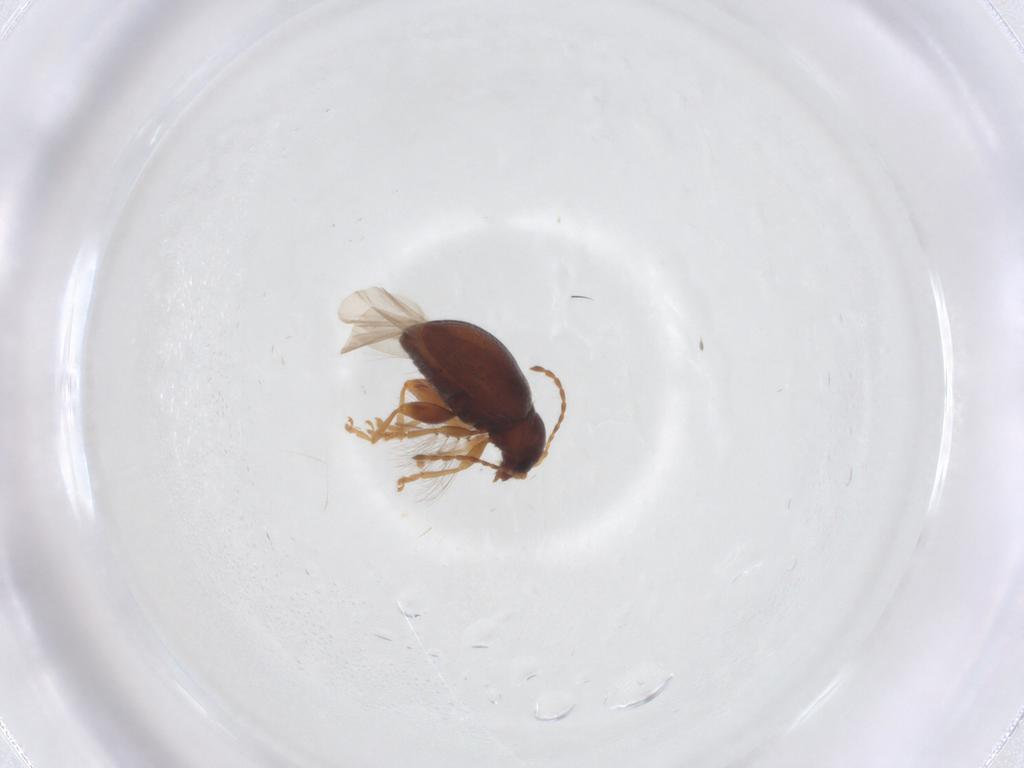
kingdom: Animalia
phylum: Arthropoda
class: Insecta
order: Coleoptera
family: Chrysomelidae
